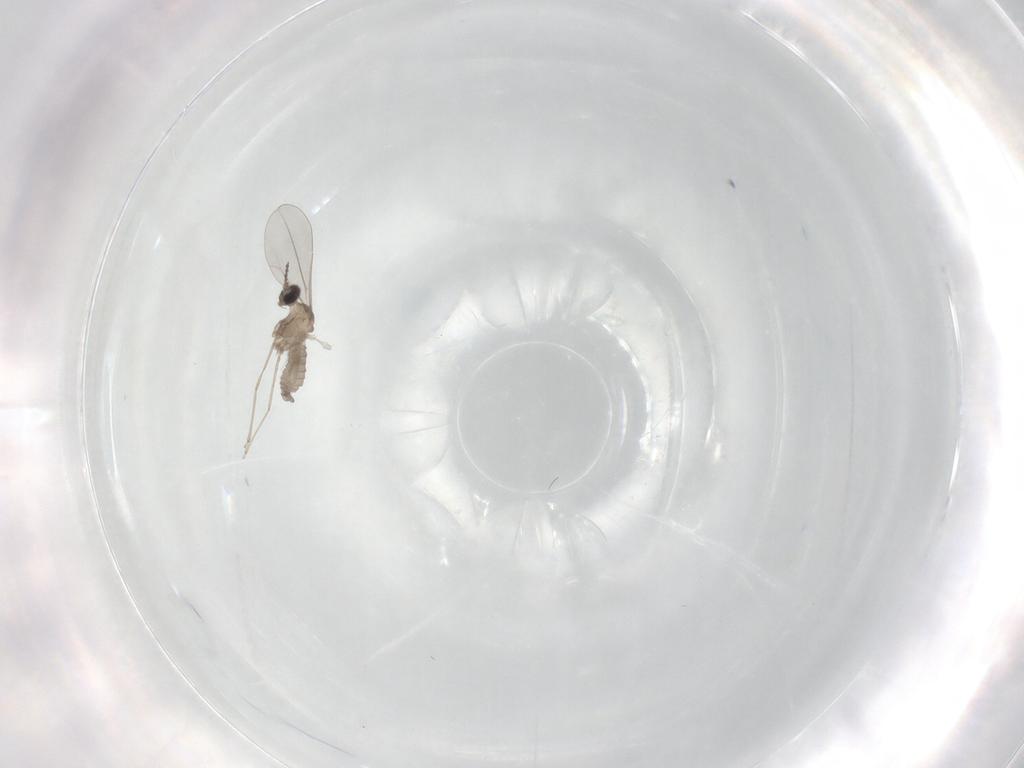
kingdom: Animalia
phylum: Arthropoda
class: Insecta
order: Diptera
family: Cecidomyiidae
